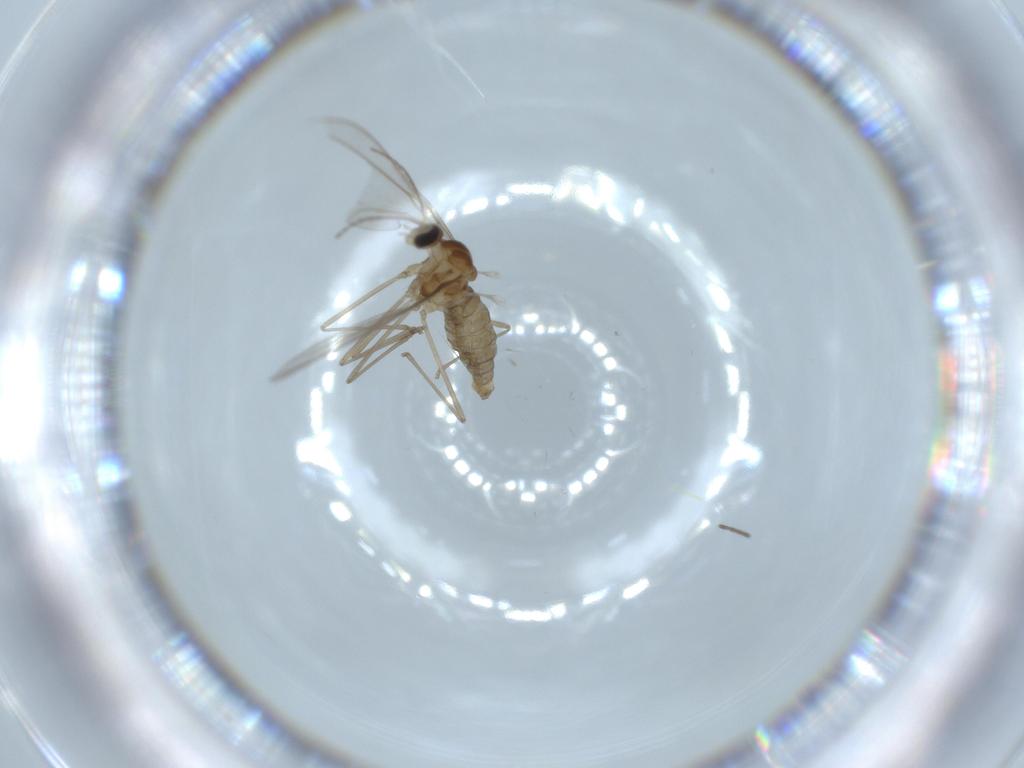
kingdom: Animalia
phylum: Arthropoda
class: Insecta
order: Diptera
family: Cecidomyiidae
